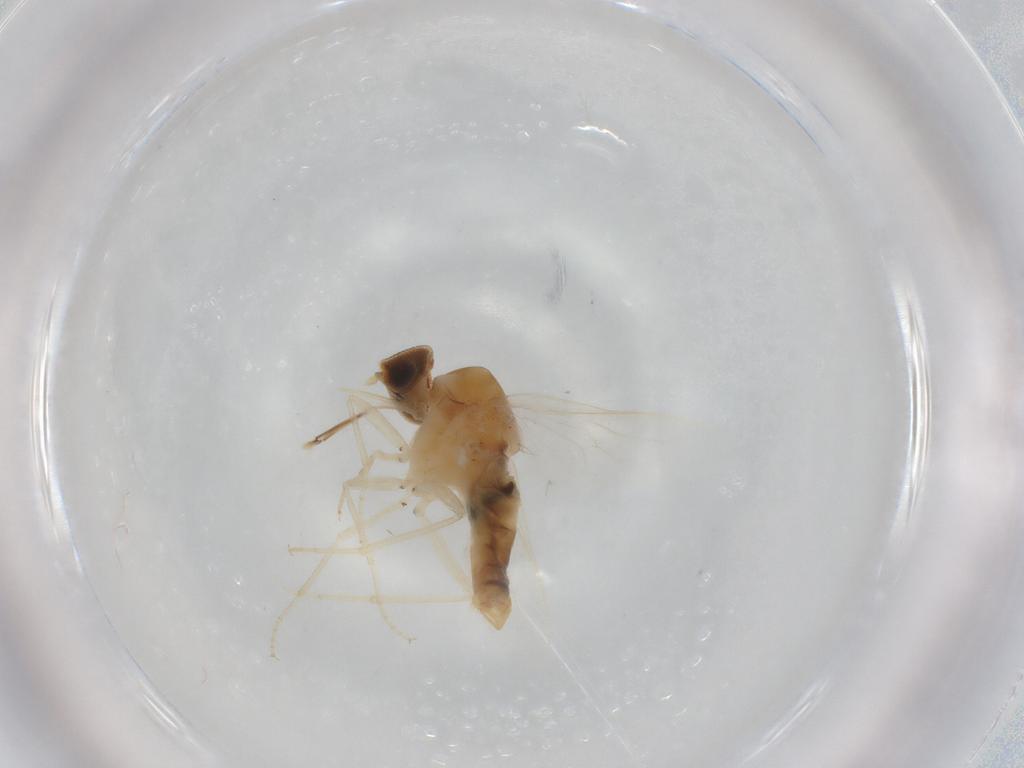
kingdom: Animalia
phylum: Arthropoda
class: Insecta
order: Diptera
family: Scenopinidae
